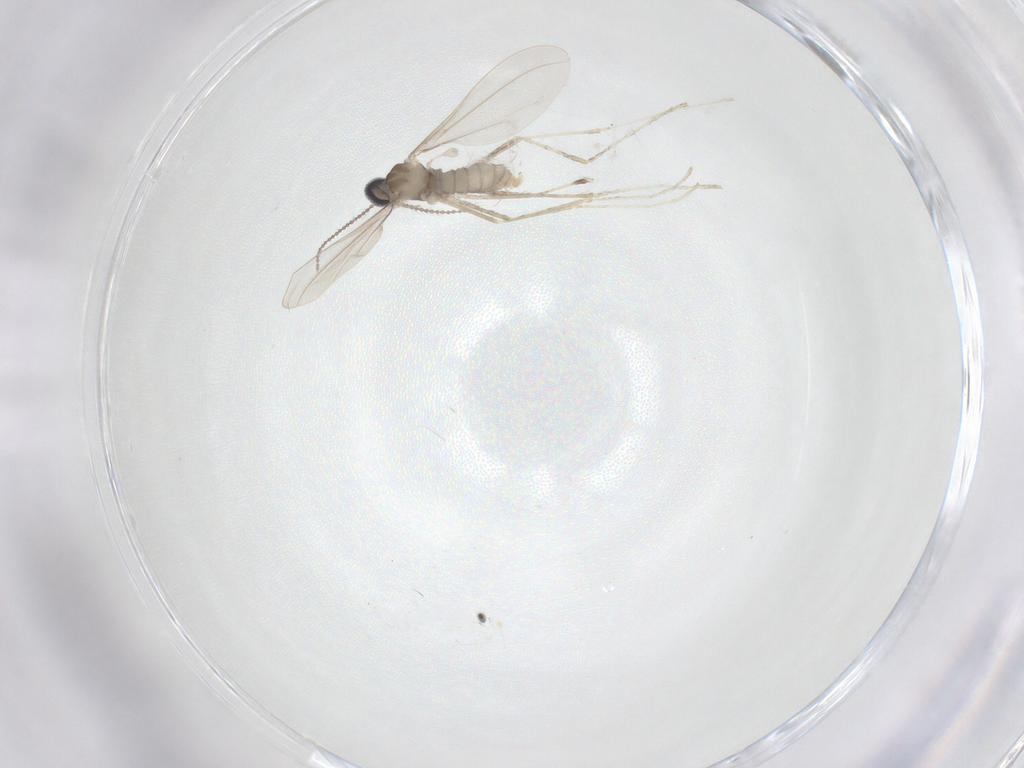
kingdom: Animalia
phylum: Arthropoda
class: Insecta
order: Diptera
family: Sciaridae
